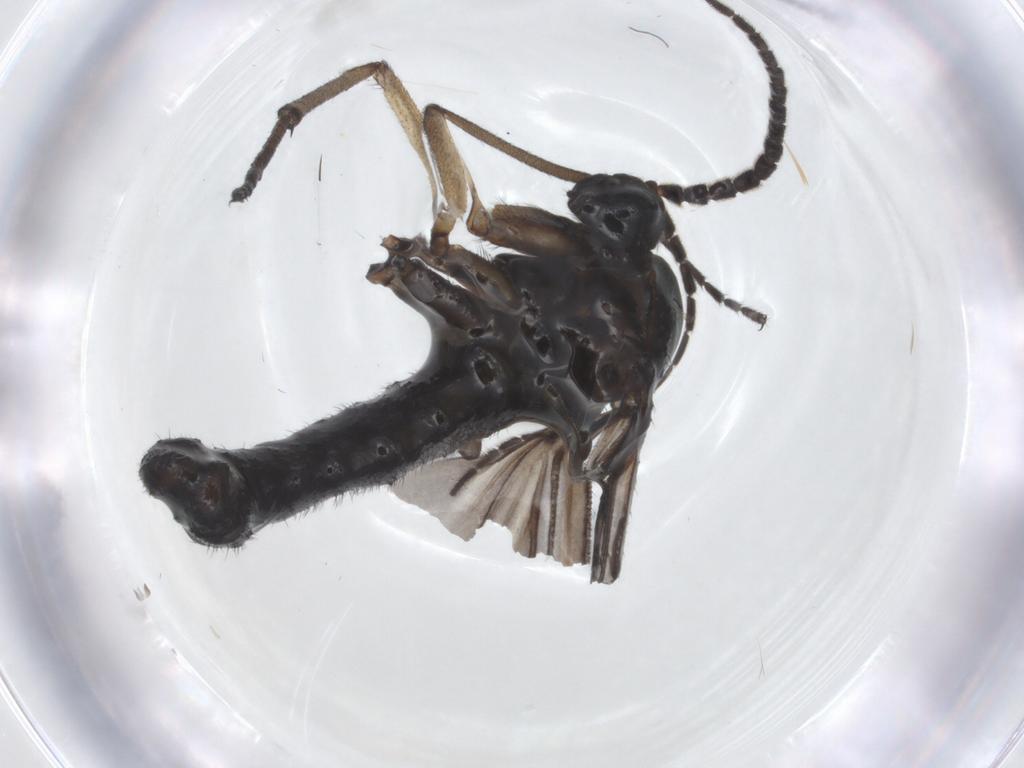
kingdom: Animalia
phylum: Arthropoda
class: Insecta
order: Diptera
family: Sciaridae
